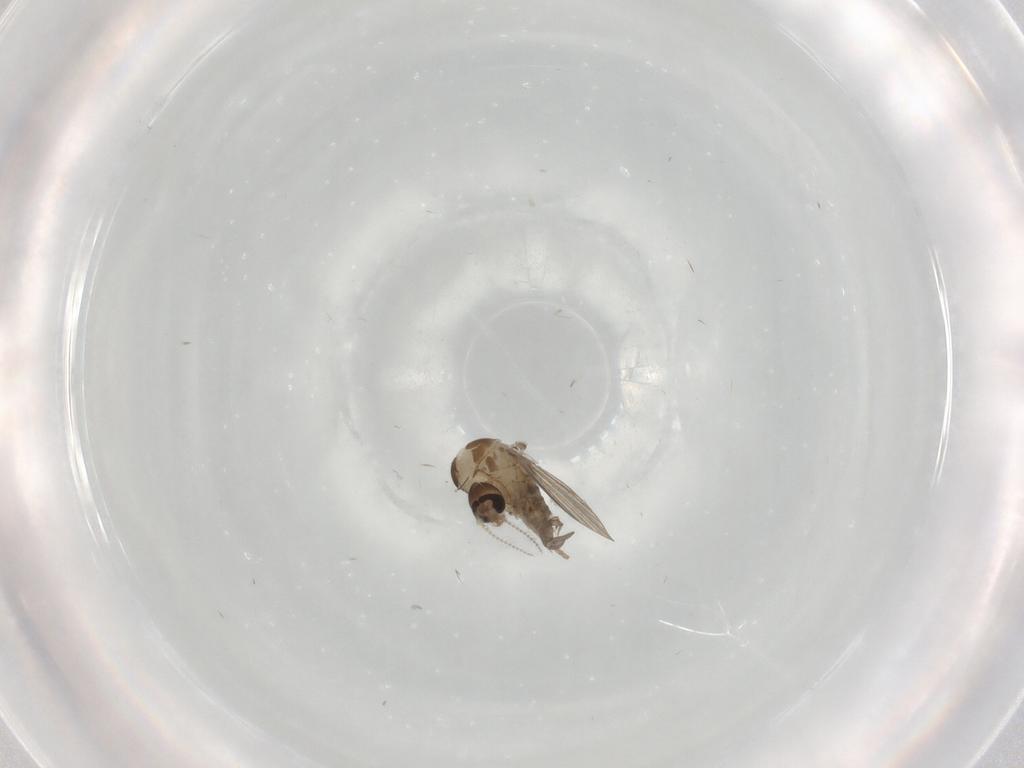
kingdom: Animalia
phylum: Arthropoda
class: Insecta
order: Diptera
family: Psychodidae
